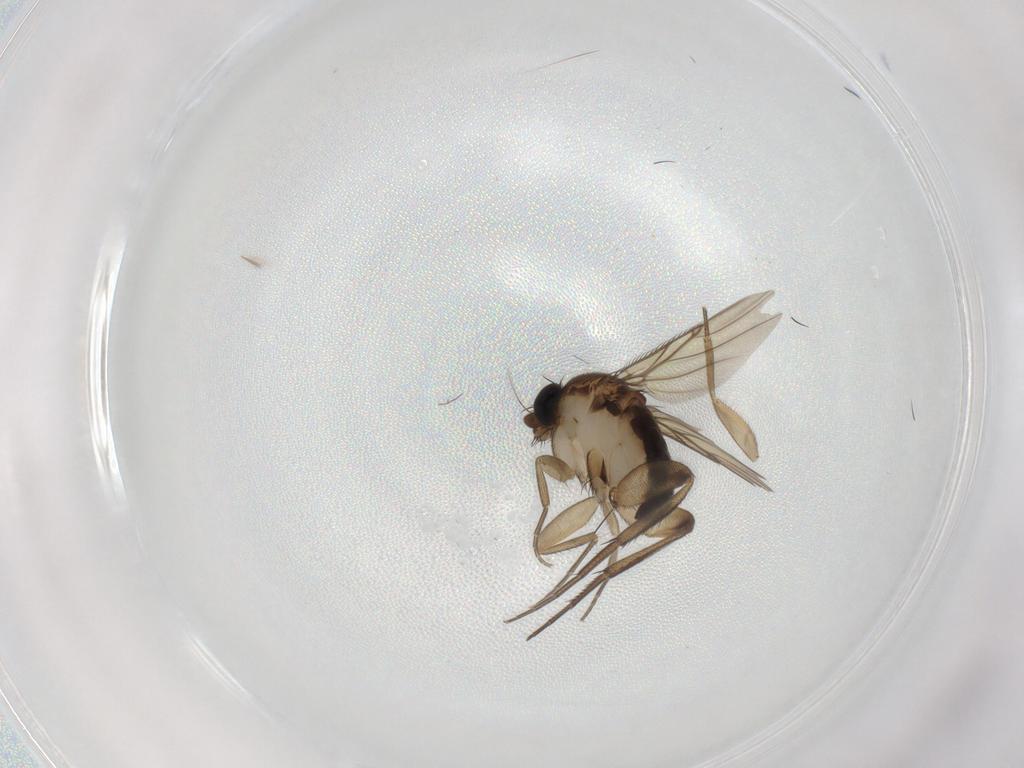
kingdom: Animalia
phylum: Arthropoda
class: Insecta
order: Diptera
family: Phoridae
